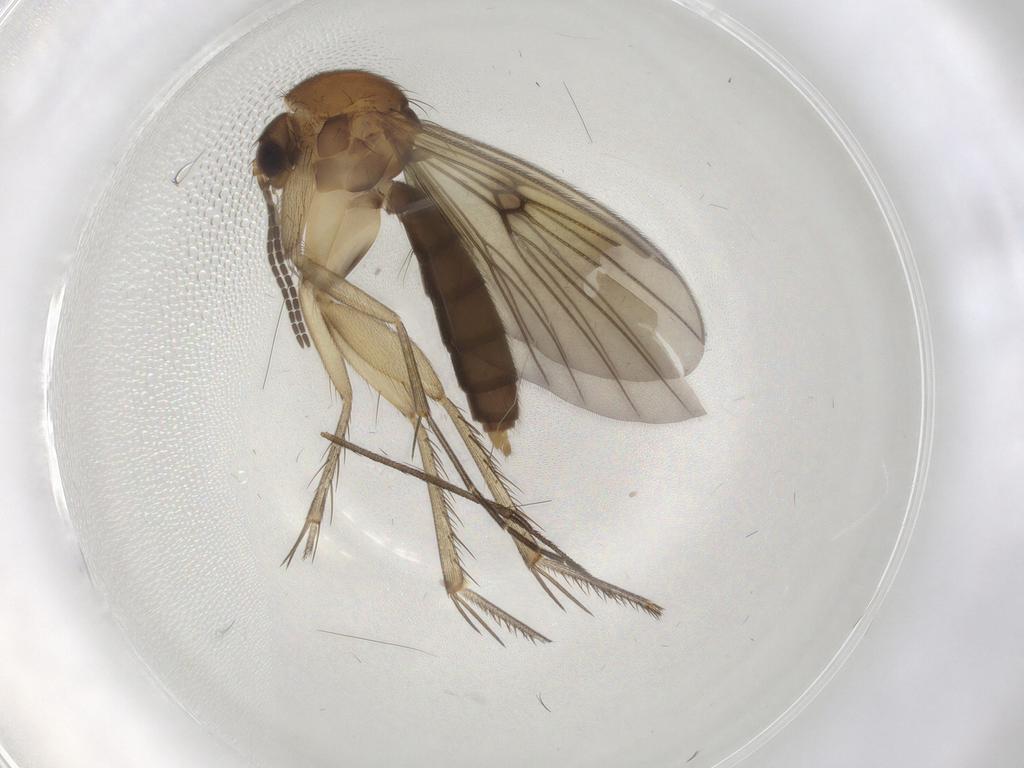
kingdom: Animalia
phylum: Arthropoda
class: Insecta
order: Diptera
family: Mycetophilidae
